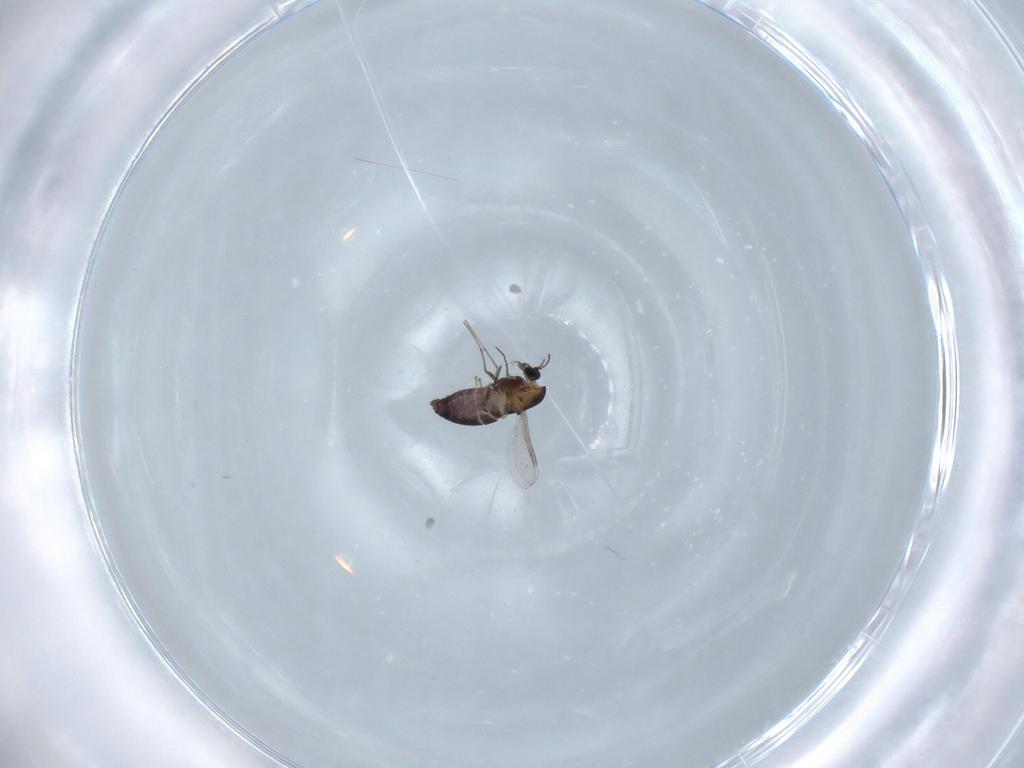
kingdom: Animalia
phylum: Arthropoda
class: Insecta
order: Diptera
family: Chironomidae
